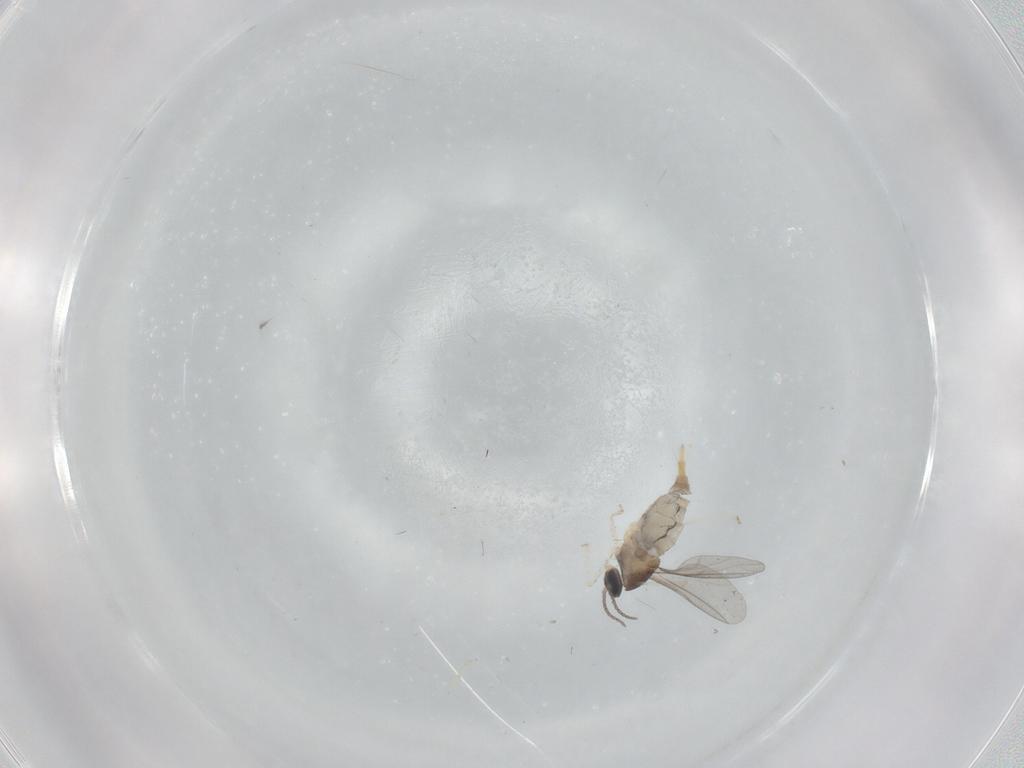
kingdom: Animalia
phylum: Arthropoda
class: Insecta
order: Diptera
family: Cecidomyiidae
